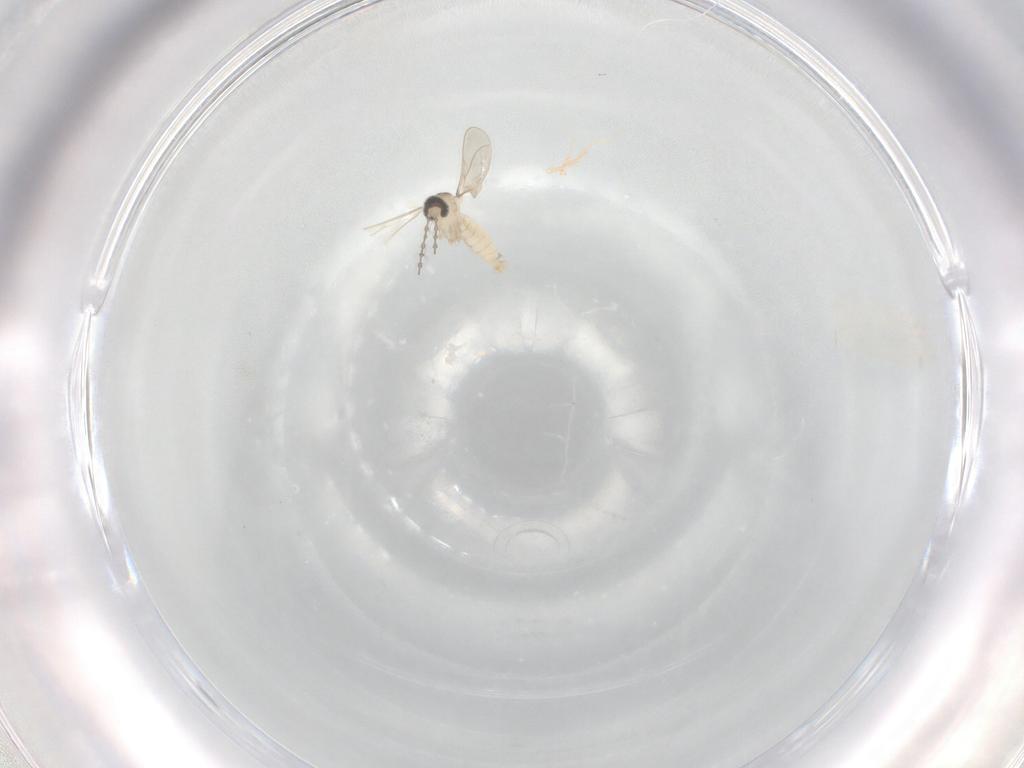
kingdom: Animalia
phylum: Arthropoda
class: Insecta
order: Diptera
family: Cecidomyiidae
